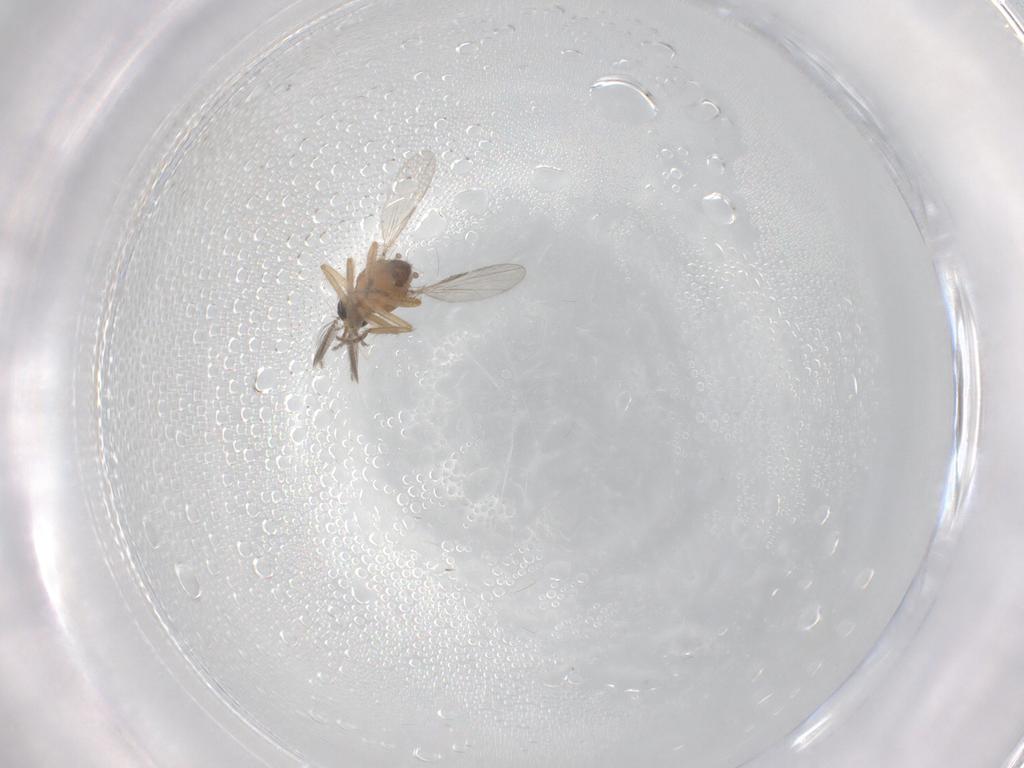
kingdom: Animalia
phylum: Arthropoda
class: Insecta
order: Diptera
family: Ceratopogonidae
